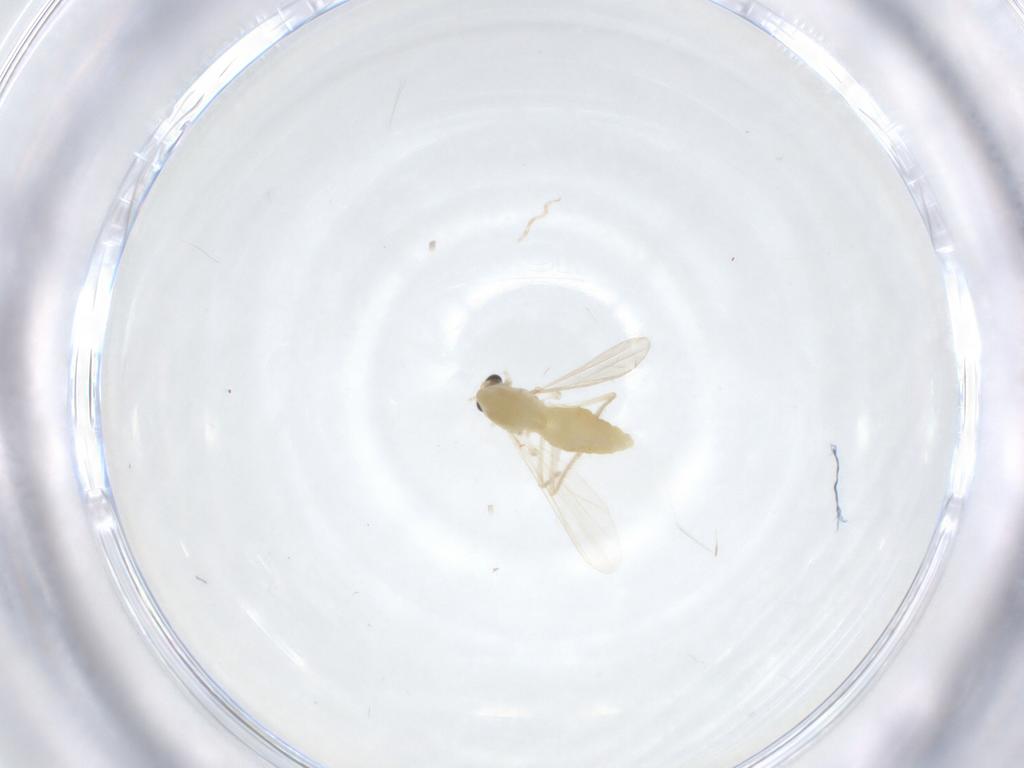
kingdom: Animalia
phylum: Arthropoda
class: Insecta
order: Diptera
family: Chironomidae
